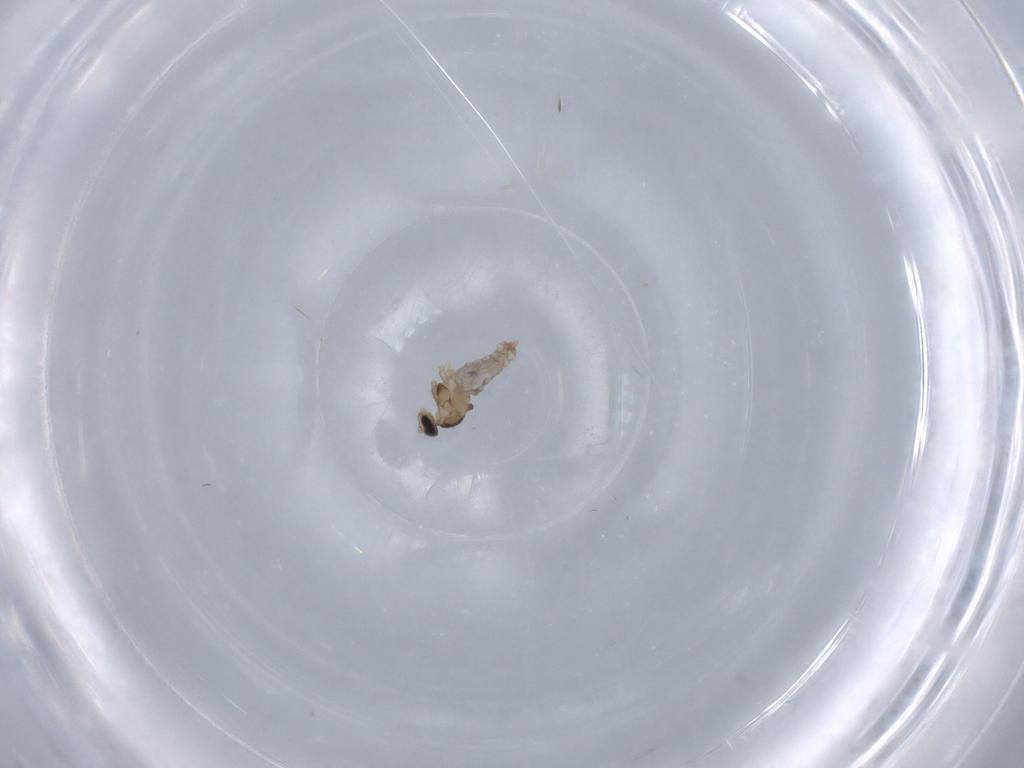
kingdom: Animalia
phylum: Arthropoda
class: Insecta
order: Diptera
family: Cecidomyiidae
